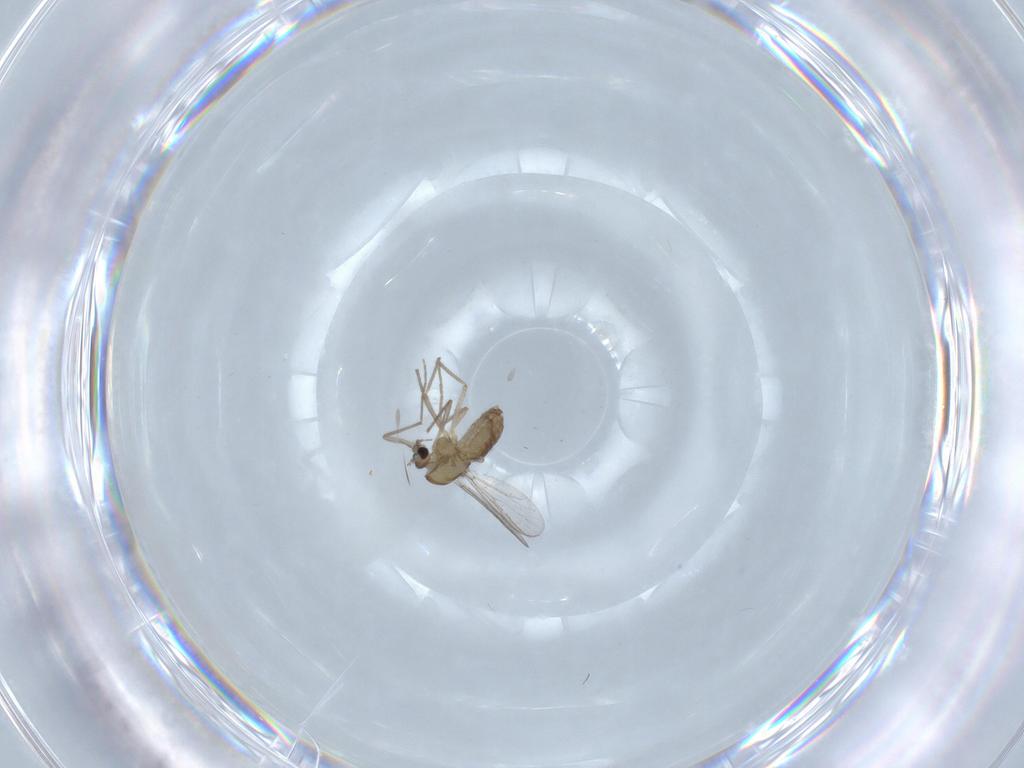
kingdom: Animalia
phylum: Arthropoda
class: Insecta
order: Diptera
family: Chironomidae
